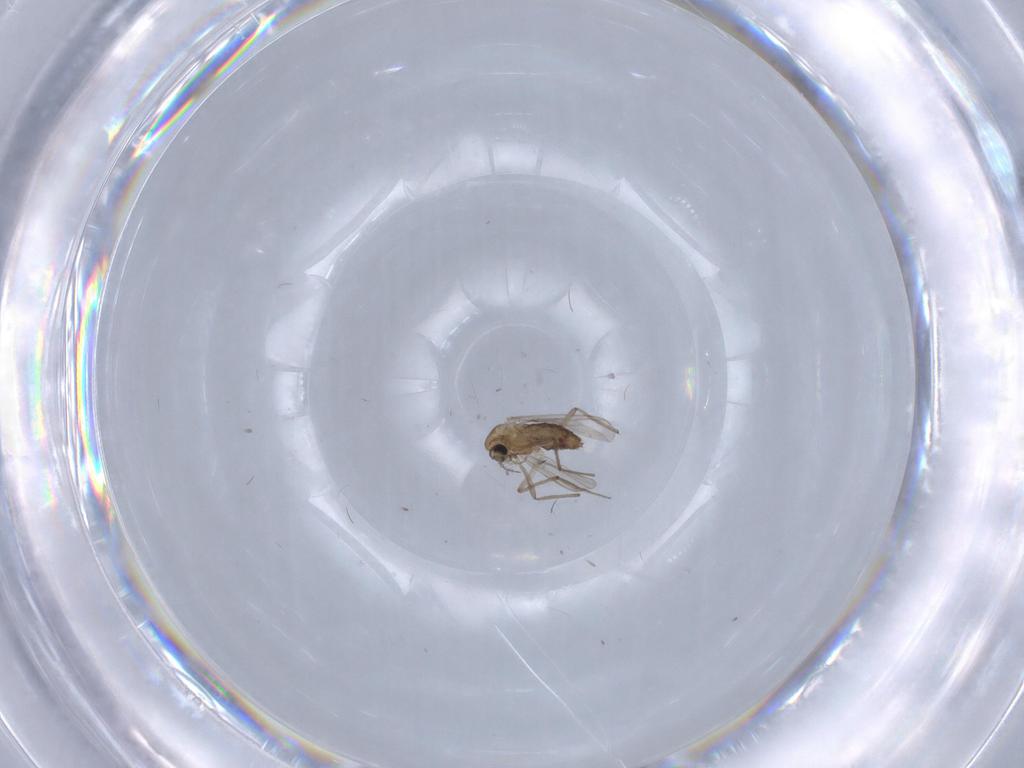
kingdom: Animalia
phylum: Arthropoda
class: Insecta
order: Diptera
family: Chironomidae
